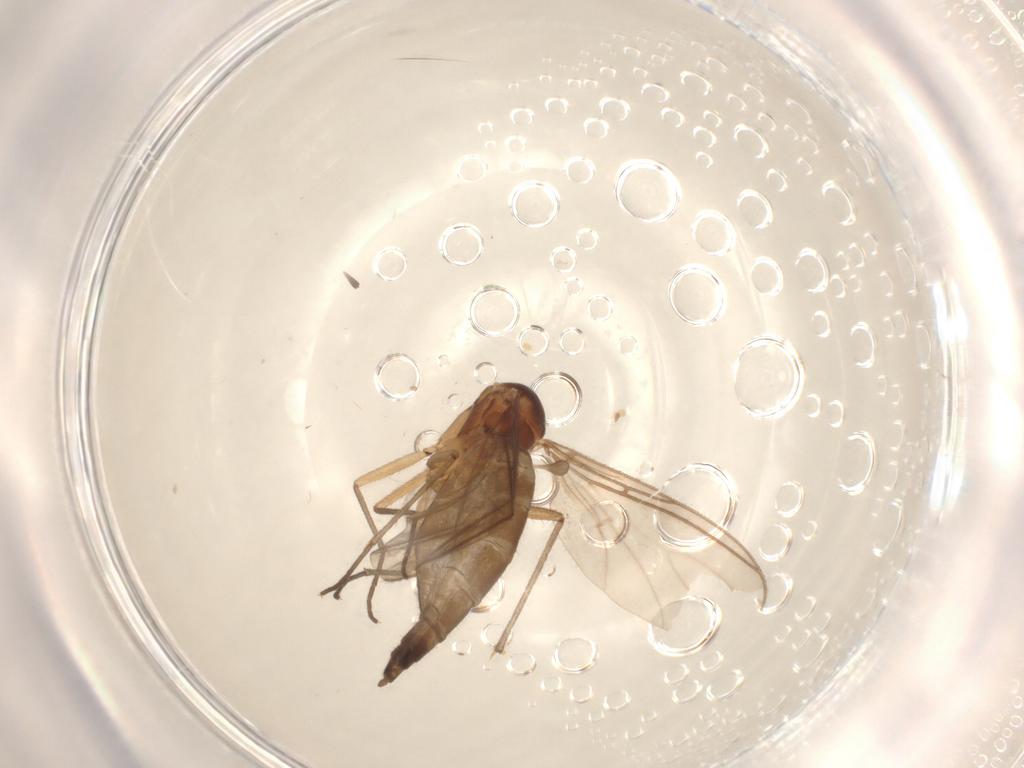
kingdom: Animalia
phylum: Arthropoda
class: Insecta
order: Diptera
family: Sciaridae
